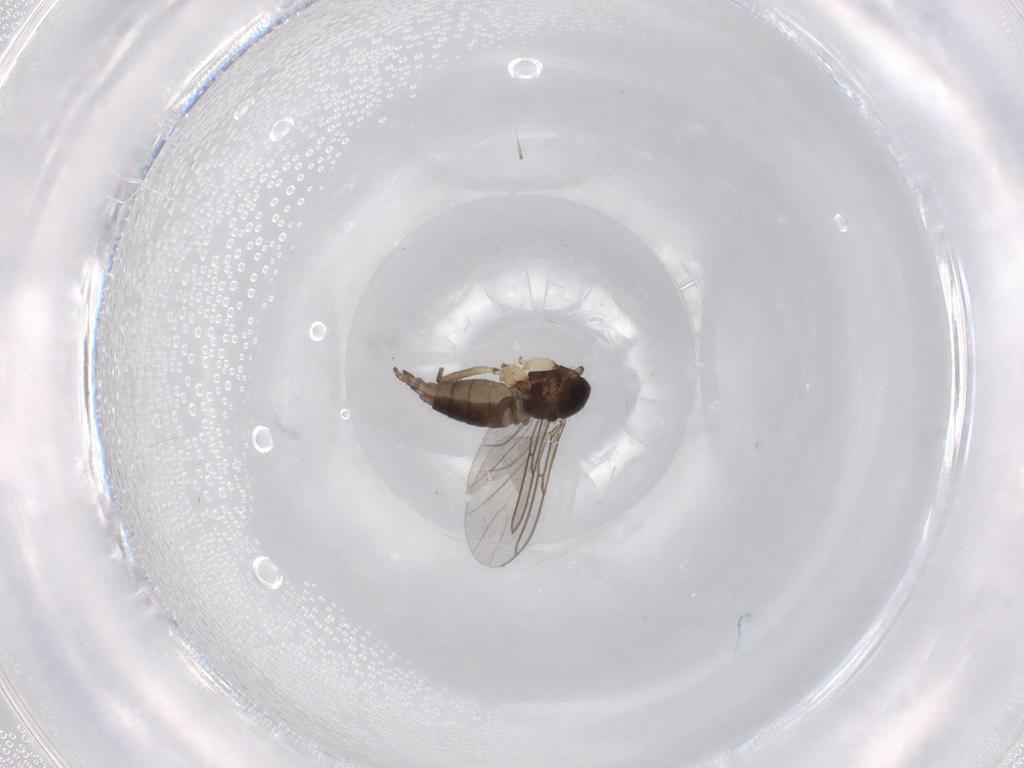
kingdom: Animalia
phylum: Arthropoda
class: Insecta
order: Diptera
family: Sciaridae
